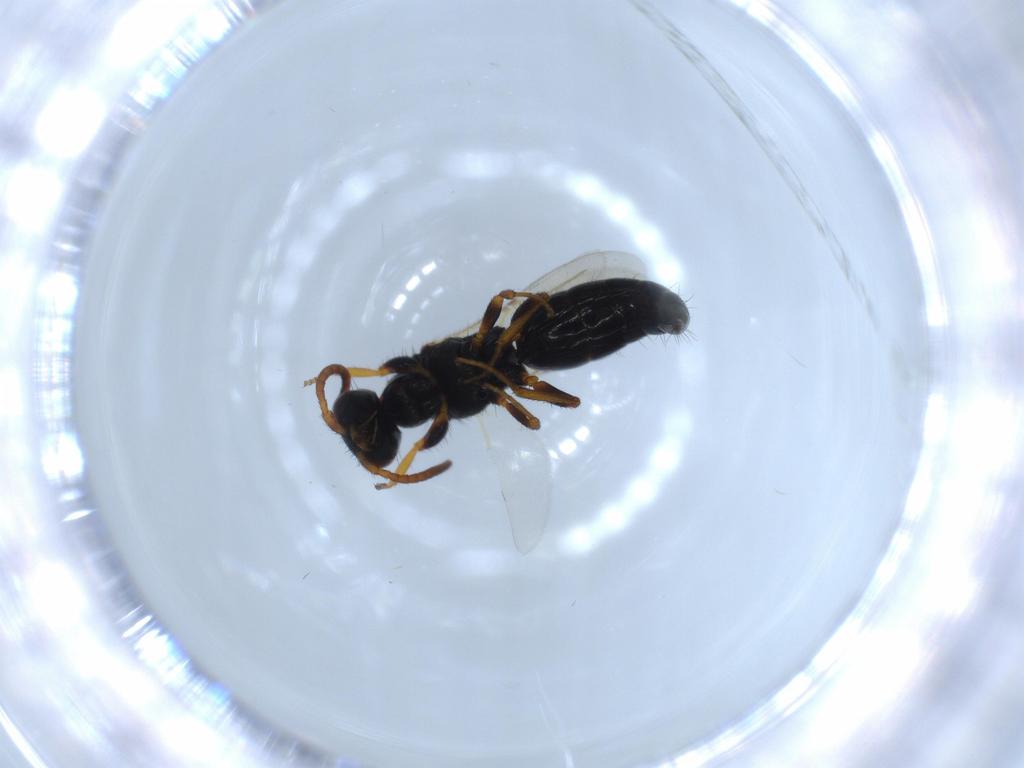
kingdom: Animalia
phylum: Arthropoda
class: Insecta
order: Hymenoptera
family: Bethylidae
